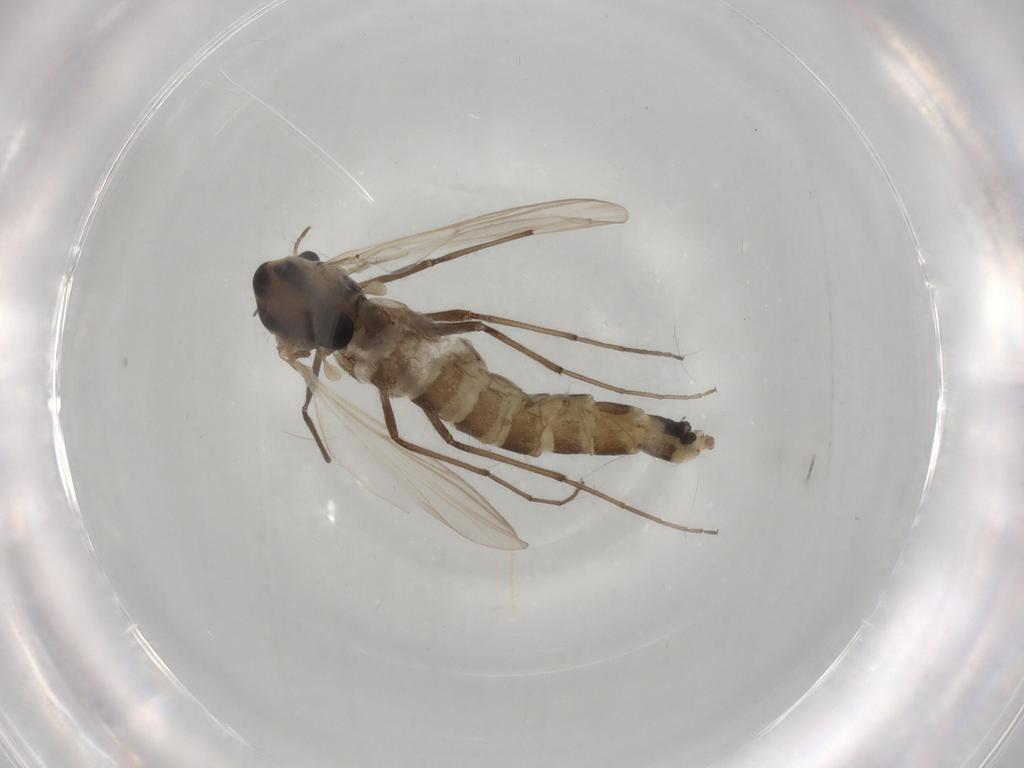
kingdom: Animalia
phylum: Arthropoda
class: Insecta
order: Diptera
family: Chironomidae
